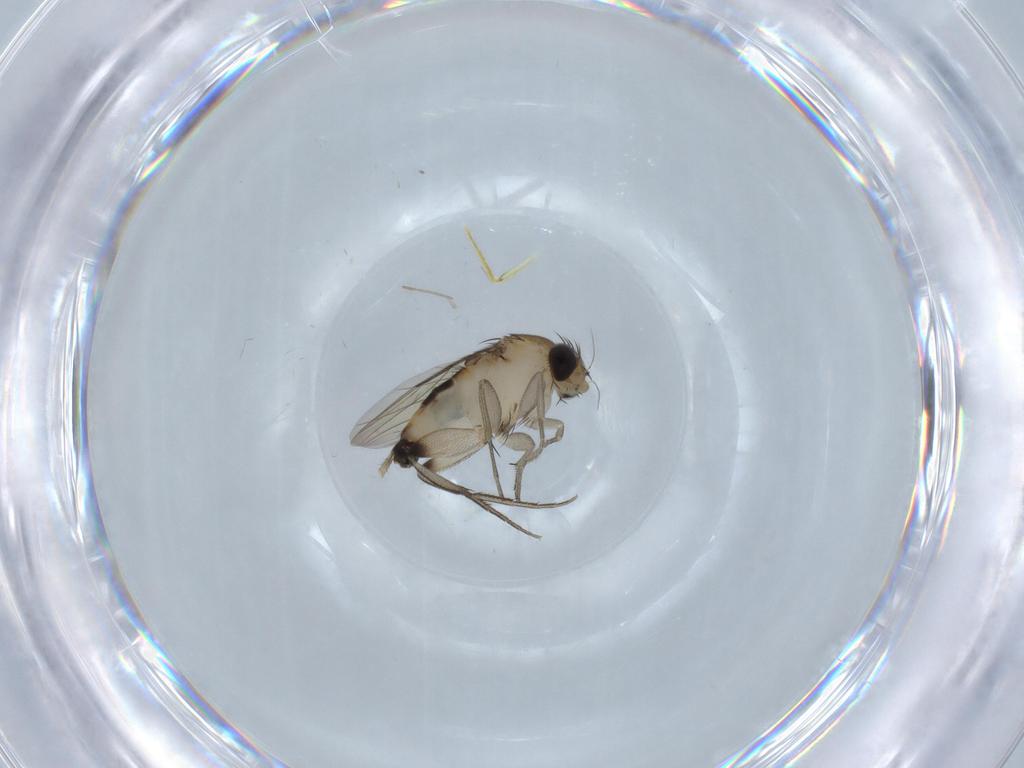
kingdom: Animalia
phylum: Arthropoda
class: Insecta
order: Diptera
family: Phoridae
